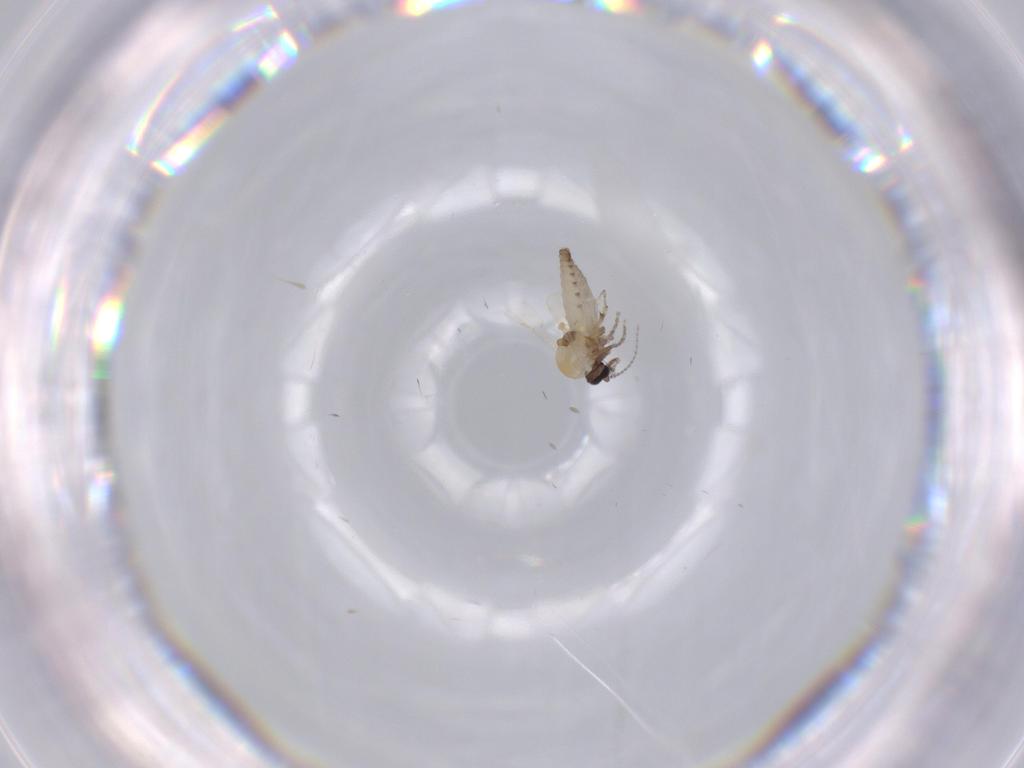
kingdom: Animalia
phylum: Arthropoda
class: Insecta
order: Diptera
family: Ceratopogonidae
